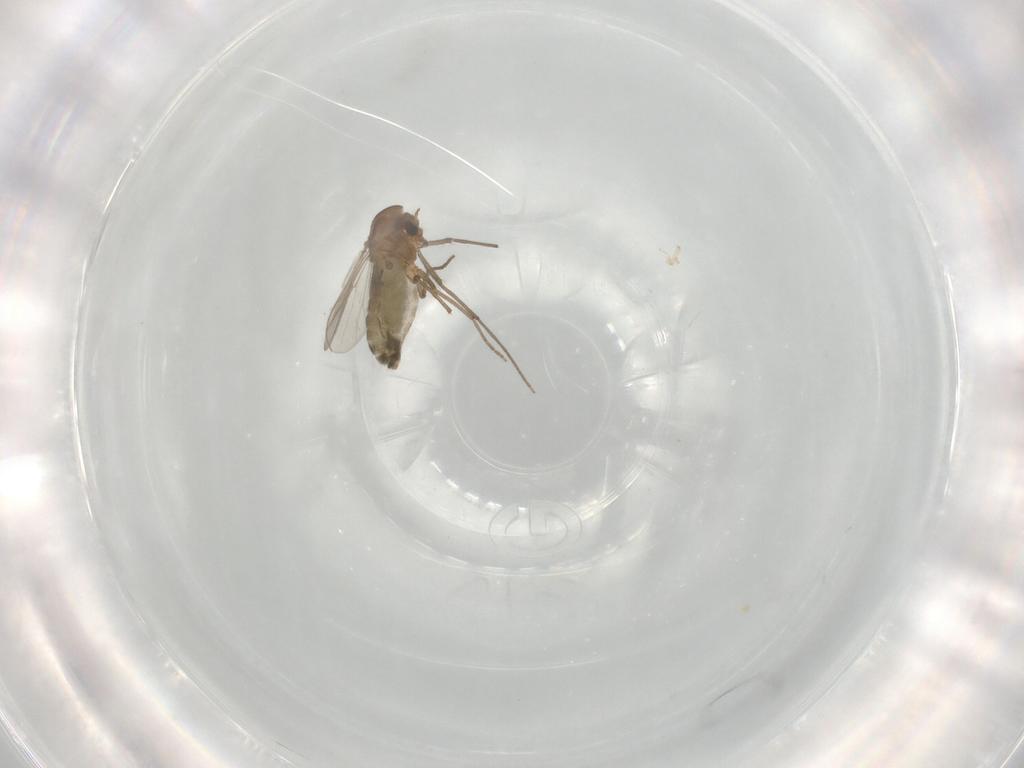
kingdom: Animalia
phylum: Arthropoda
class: Insecta
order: Diptera
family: Chironomidae
